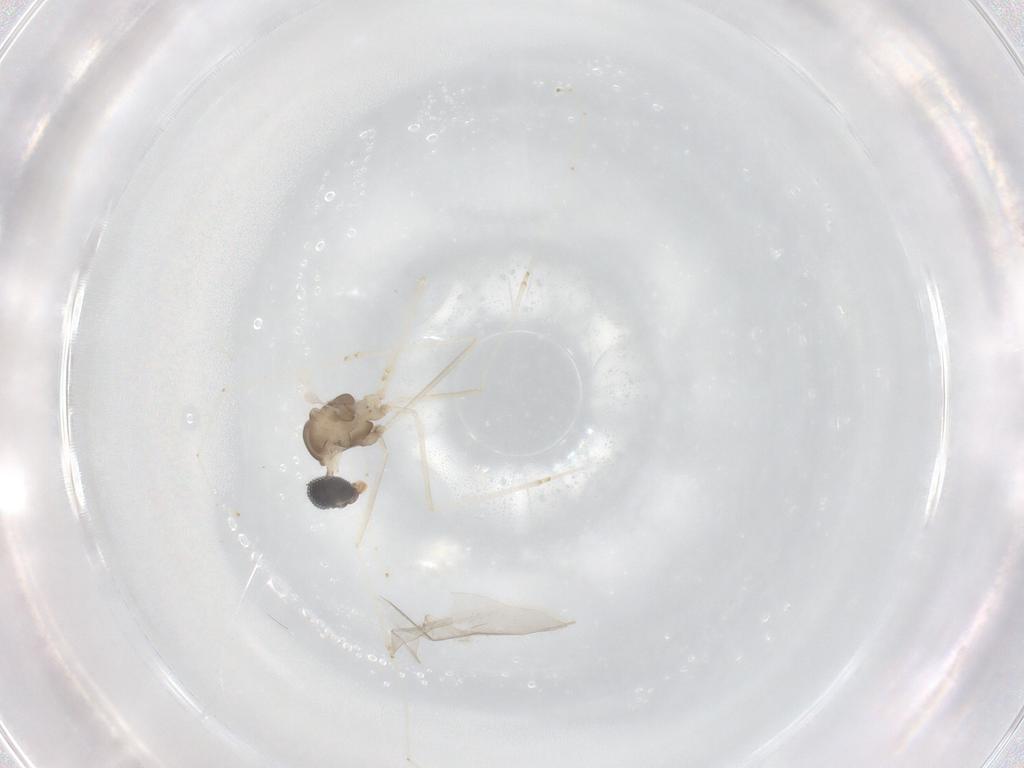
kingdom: Animalia
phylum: Arthropoda
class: Insecta
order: Diptera
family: Cecidomyiidae
